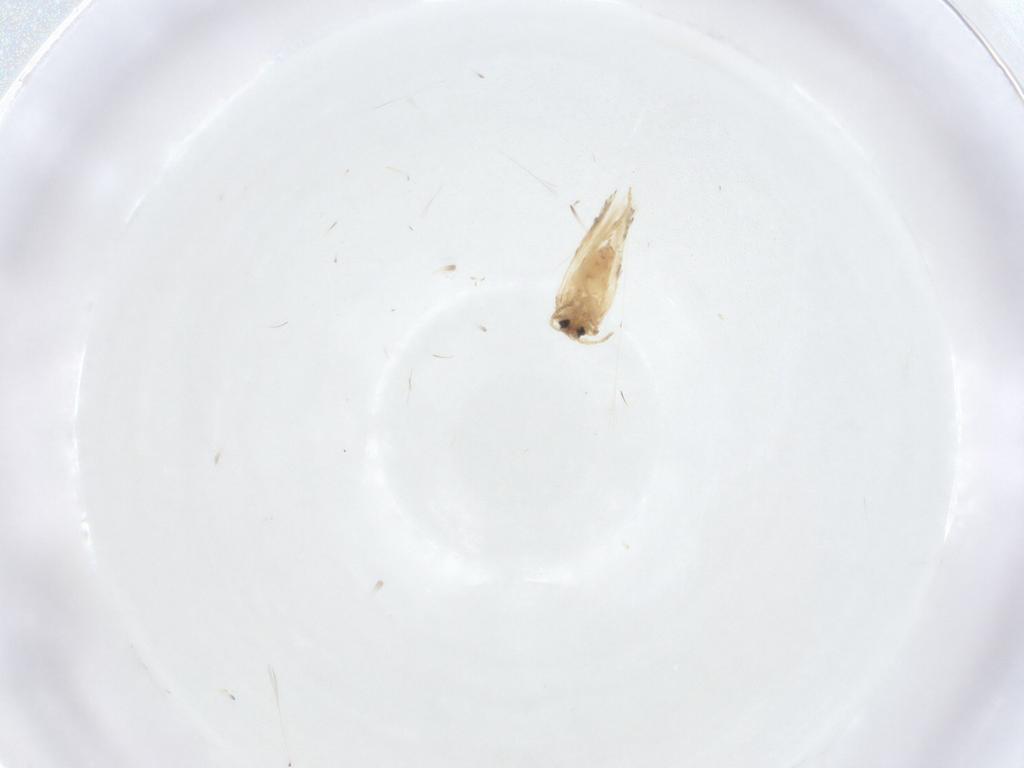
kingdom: Animalia
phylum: Arthropoda
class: Insecta
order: Lepidoptera
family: Crambidae
